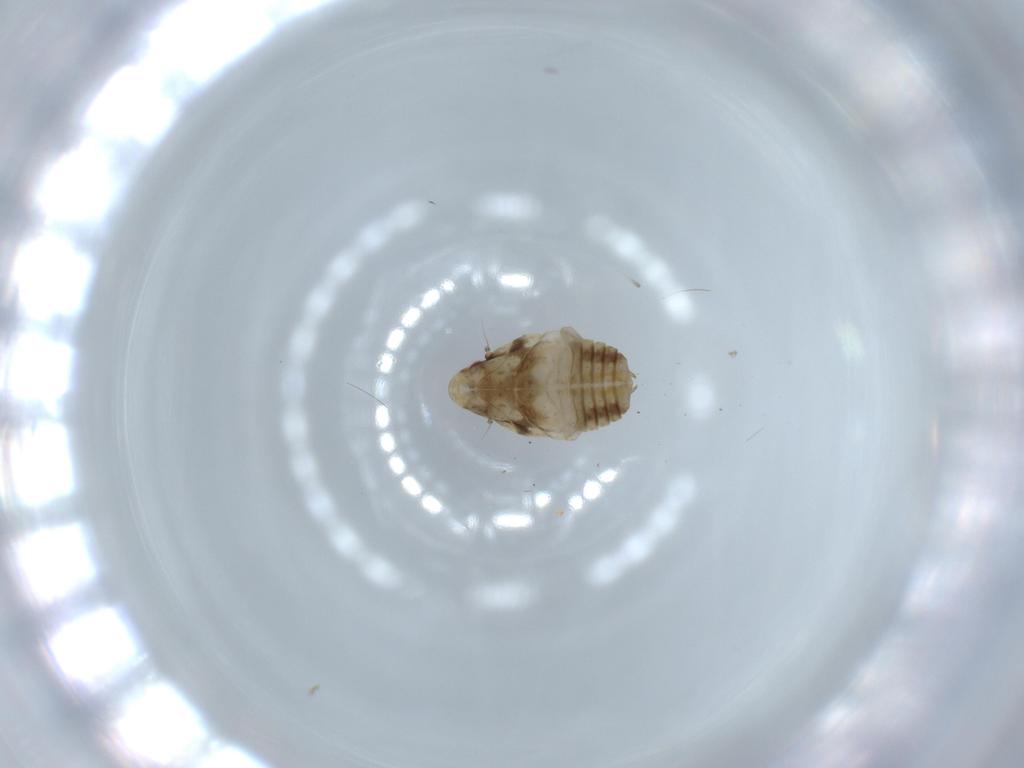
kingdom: Animalia
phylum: Arthropoda
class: Insecta
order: Hemiptera
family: Flatidae
